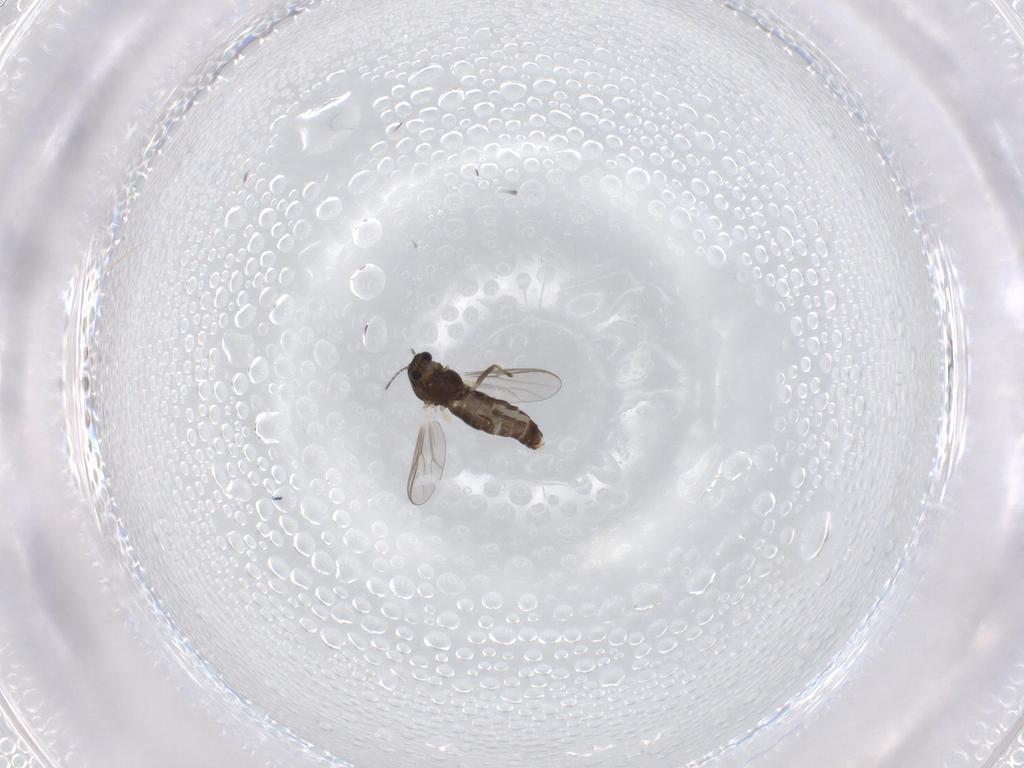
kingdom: Animalia
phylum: Arthropoda
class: Insecta
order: Diptera
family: Chironomidae
